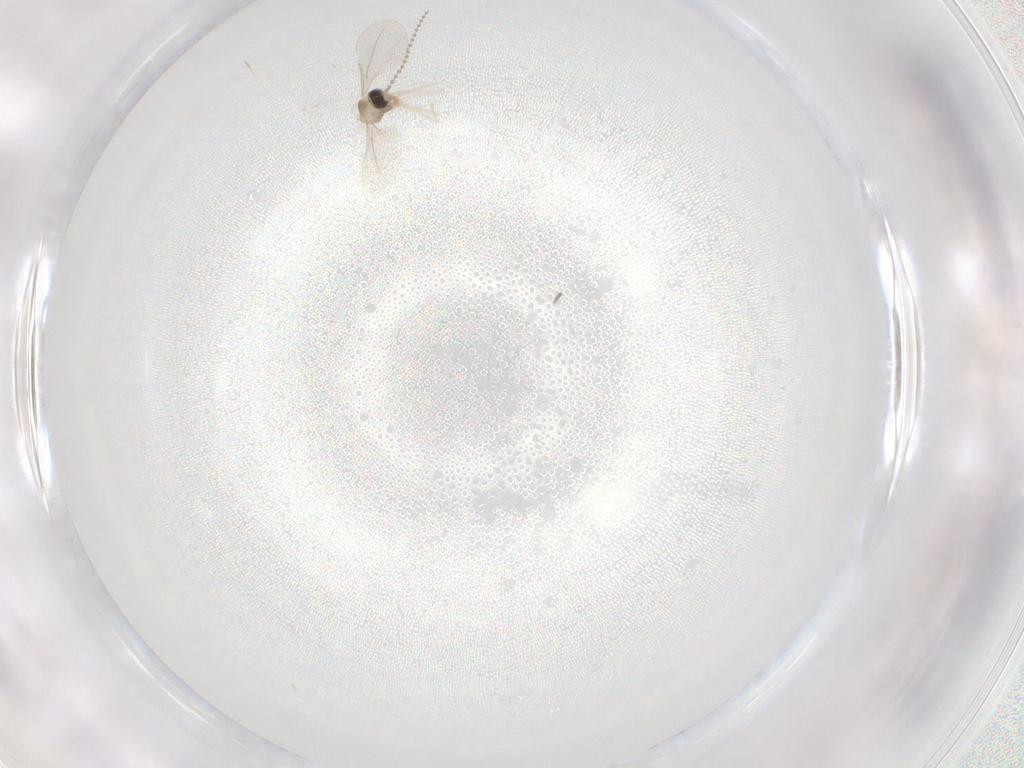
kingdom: Animalia
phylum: Arthropoda
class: Insecta
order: Diptera
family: Cecidomyiidae
